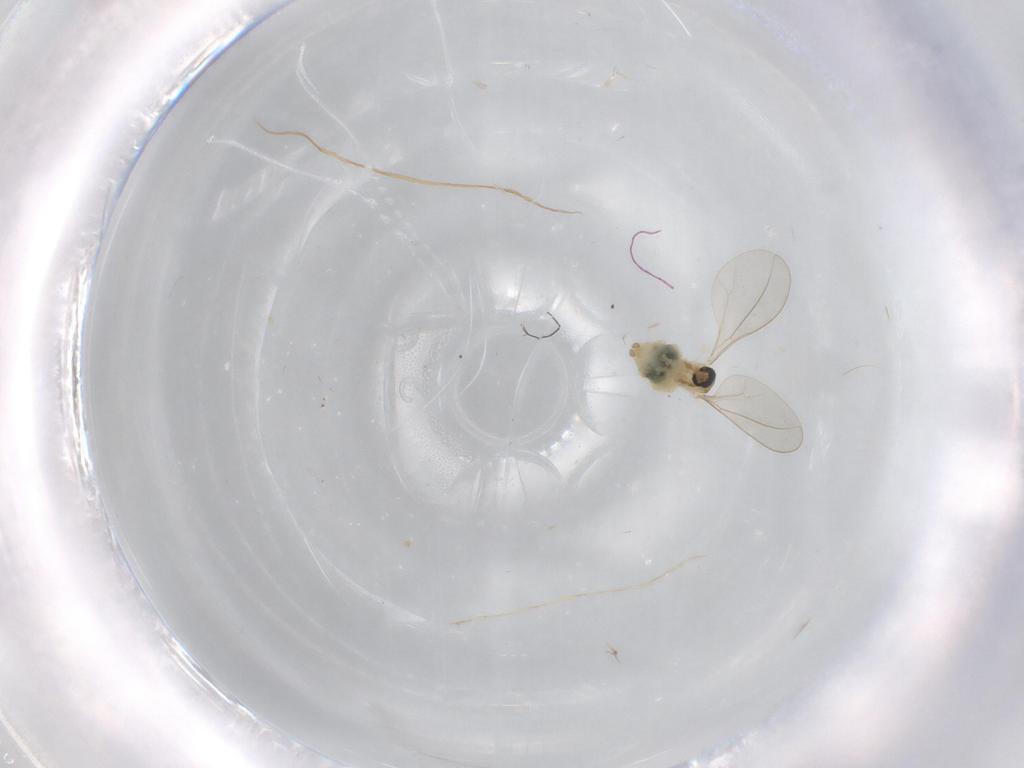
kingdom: Animalia
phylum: Arthropoda
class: Insecta
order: Diptera
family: Cecidomyiidae
